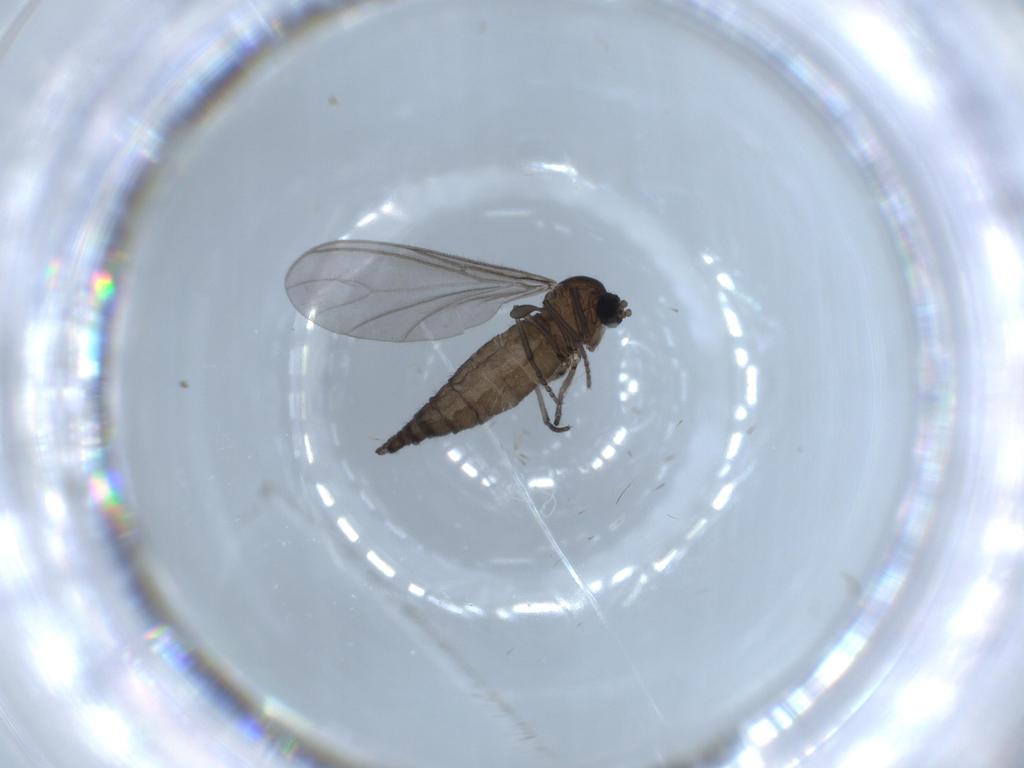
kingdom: Animalia
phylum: Arthropoda
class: Insecta
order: Diptera
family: Sciaridae
